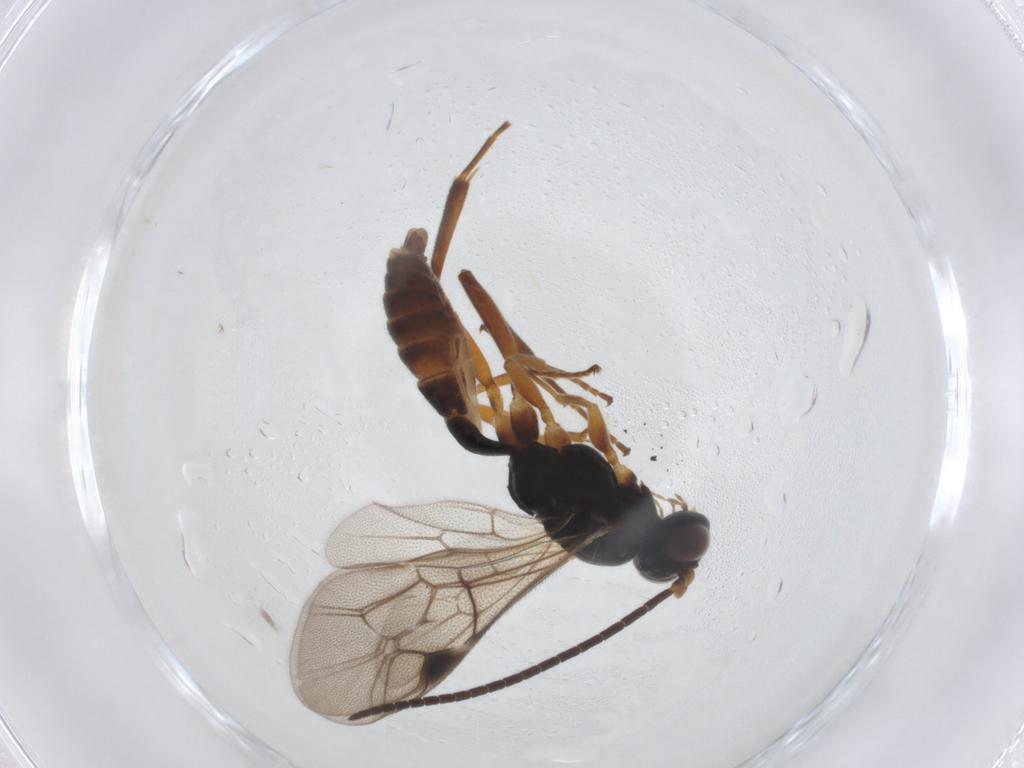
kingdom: Animalia
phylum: Arthropoda
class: Insecta
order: Hymenoptera
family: Ichneumonidae
